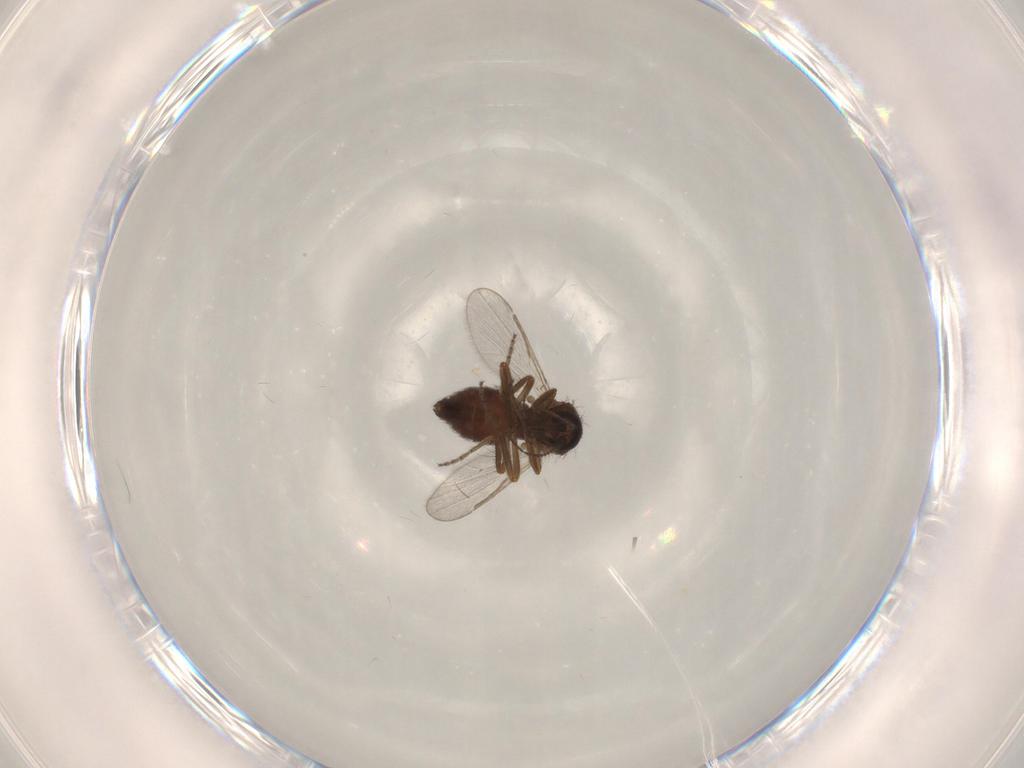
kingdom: Animalia
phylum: Arthropoda
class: Insecta
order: Diptera
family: Ceratopogonidae
